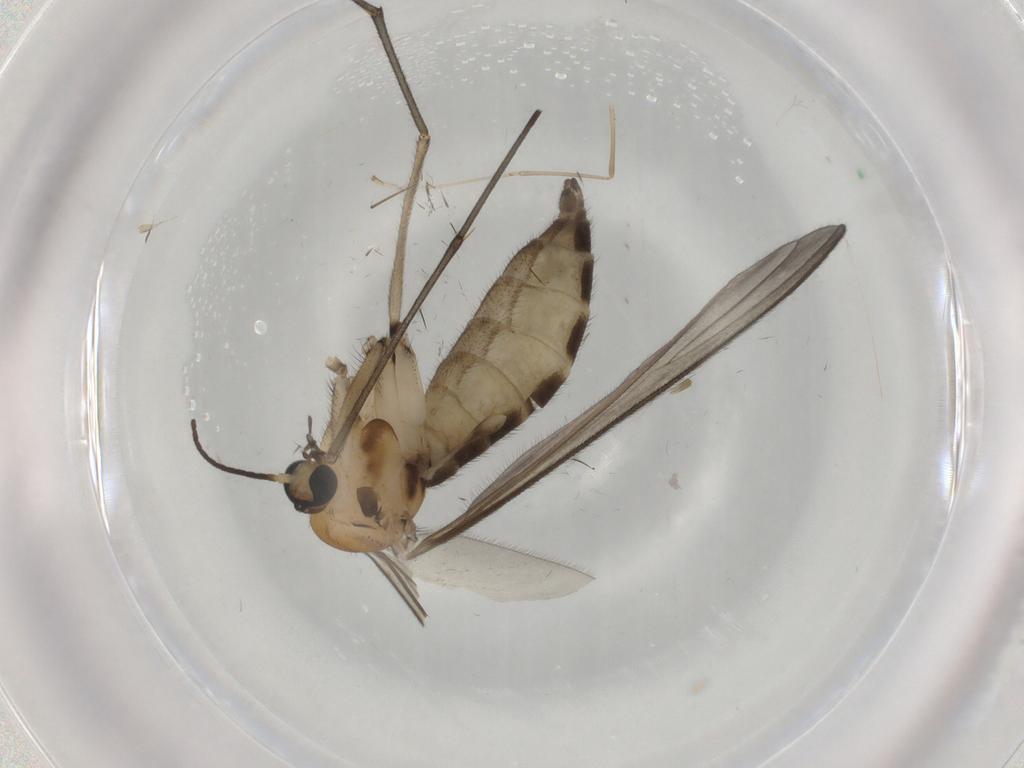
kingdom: Animalia
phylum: Arthropoda
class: Insecta
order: Diptera
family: Sciaridae
